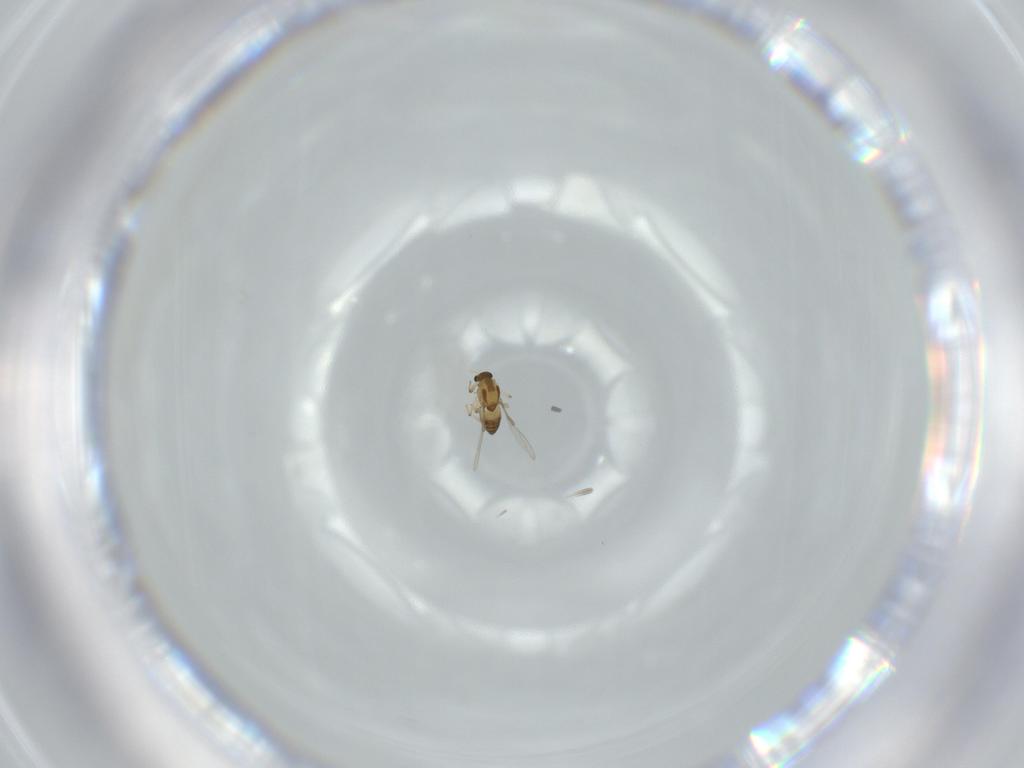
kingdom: Animalia
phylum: Arthropoda
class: Insecta
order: Diptera
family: Chironomidae
